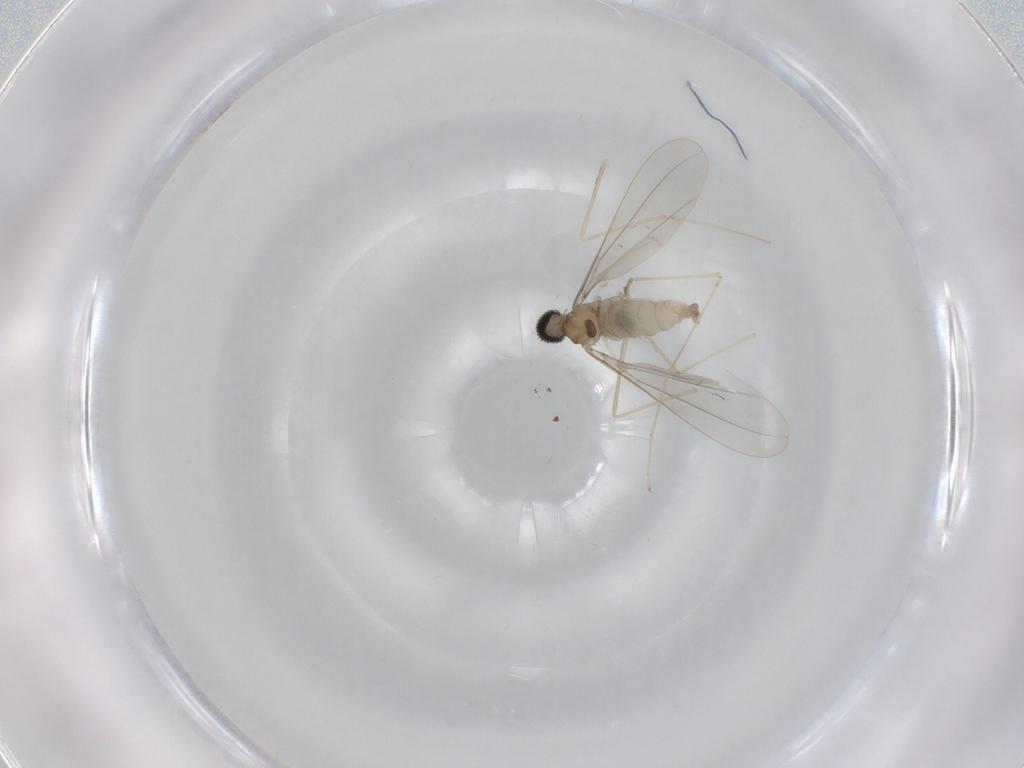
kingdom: Animalia
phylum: Arthropoda
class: Insecta
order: Diptera
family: Cecidomyiidae
